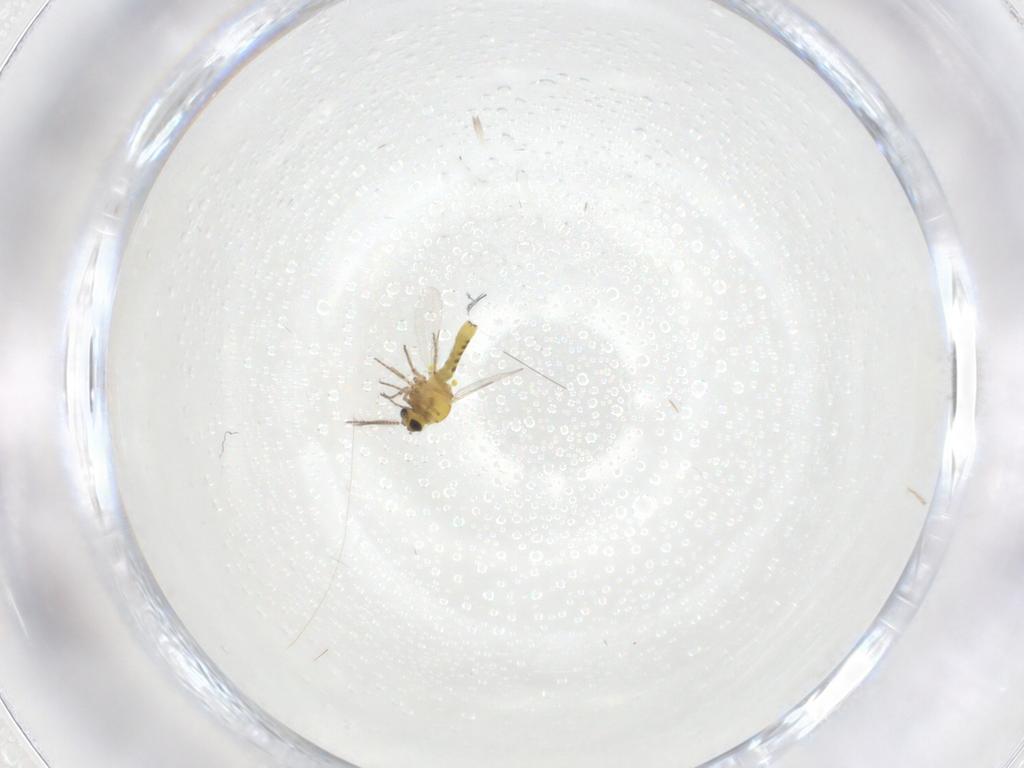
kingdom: Animalia
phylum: Arthropoda
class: Insecta
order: Diptera
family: Ceratopogonidae
